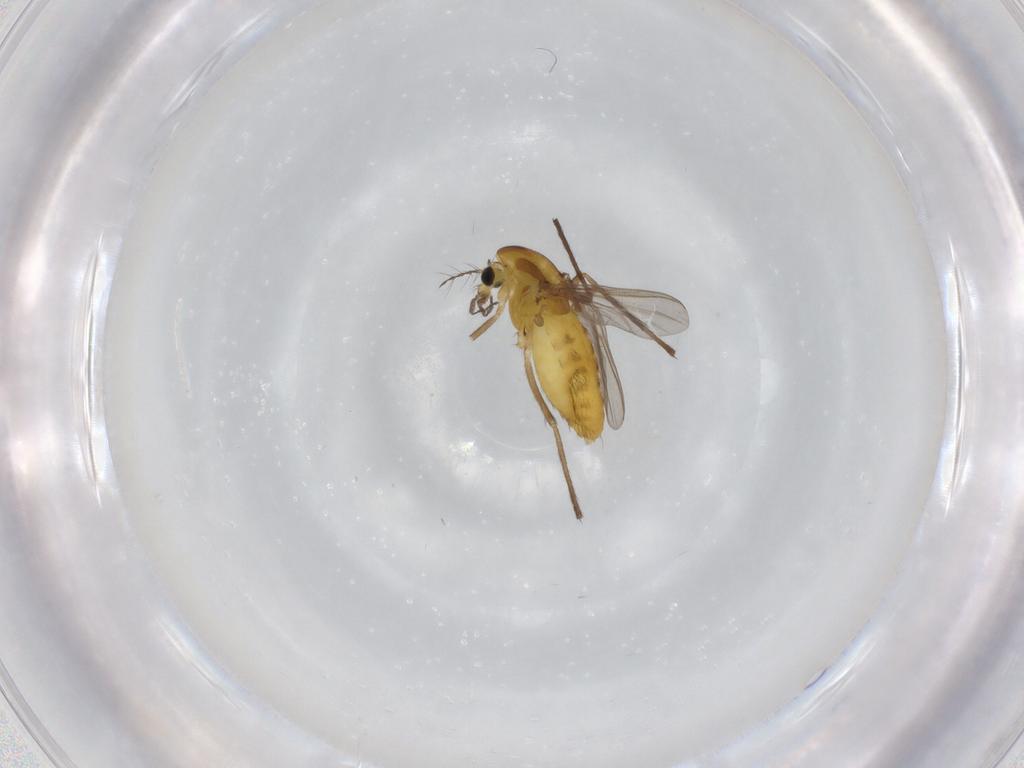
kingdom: Animalia
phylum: Arthropoda
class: Insecta
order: Diptera
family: Chironomidae
